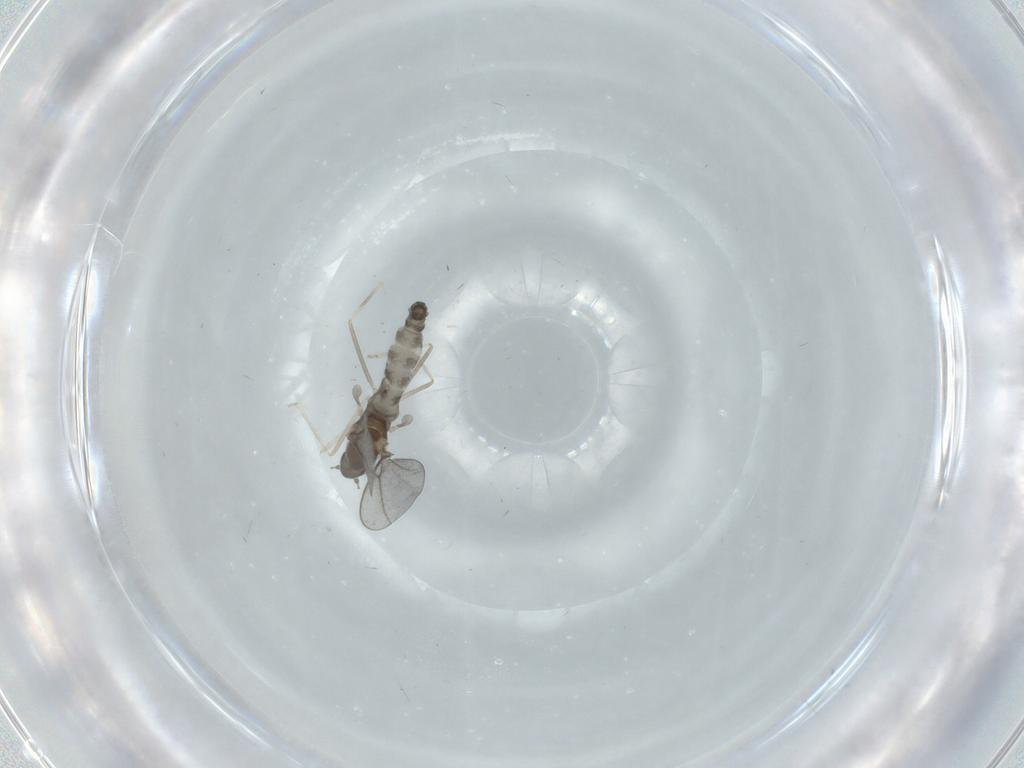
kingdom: Animalia
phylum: Arthropoda
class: Insecta
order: Diptera
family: Cecidomyiidae
